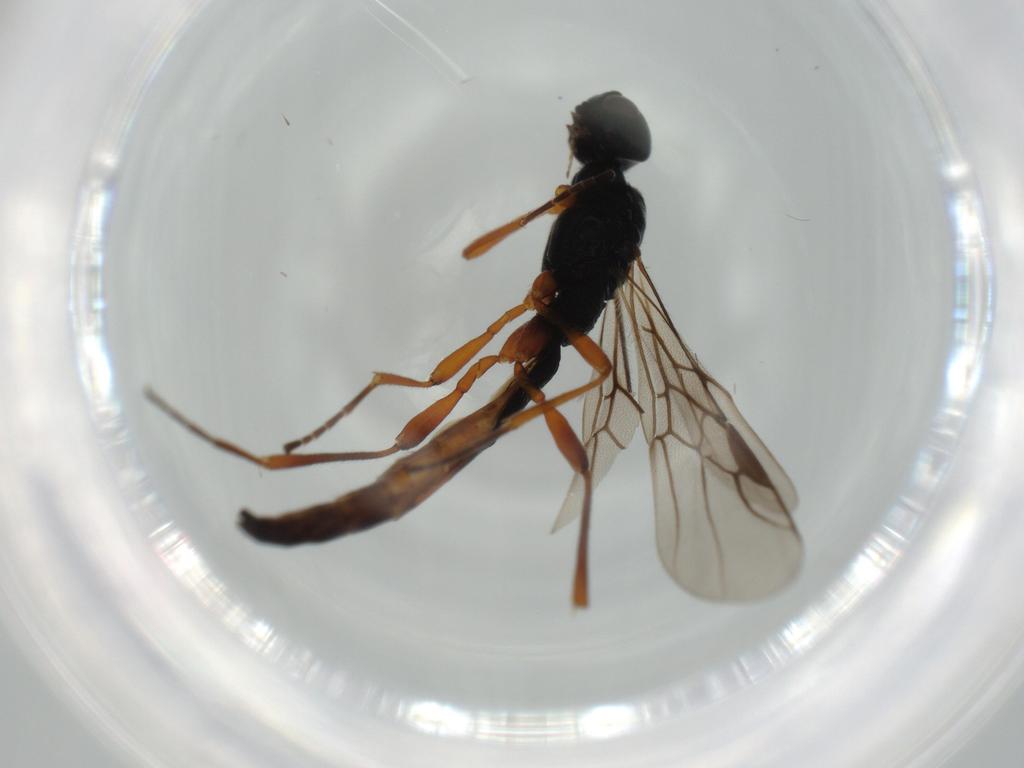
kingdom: Animalia
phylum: Arthropoda
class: Insecta
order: Hymenoptera
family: Braconidae
